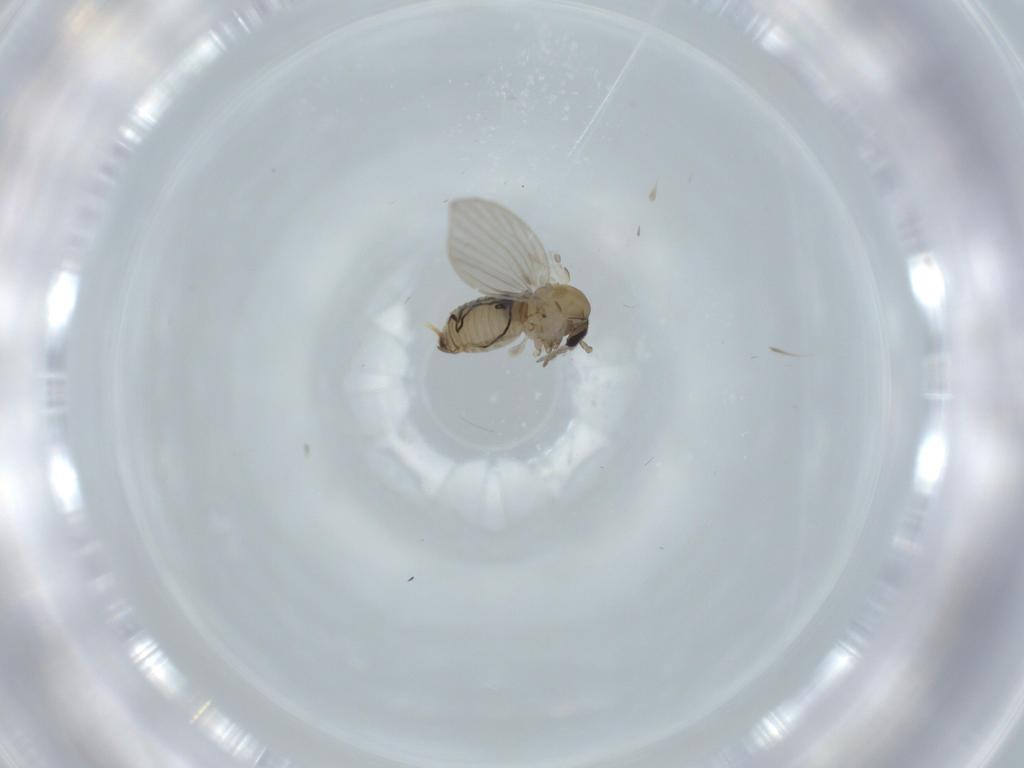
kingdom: Animalia
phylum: Arthropoda
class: Insecta
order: Diptera
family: Psychodidae
